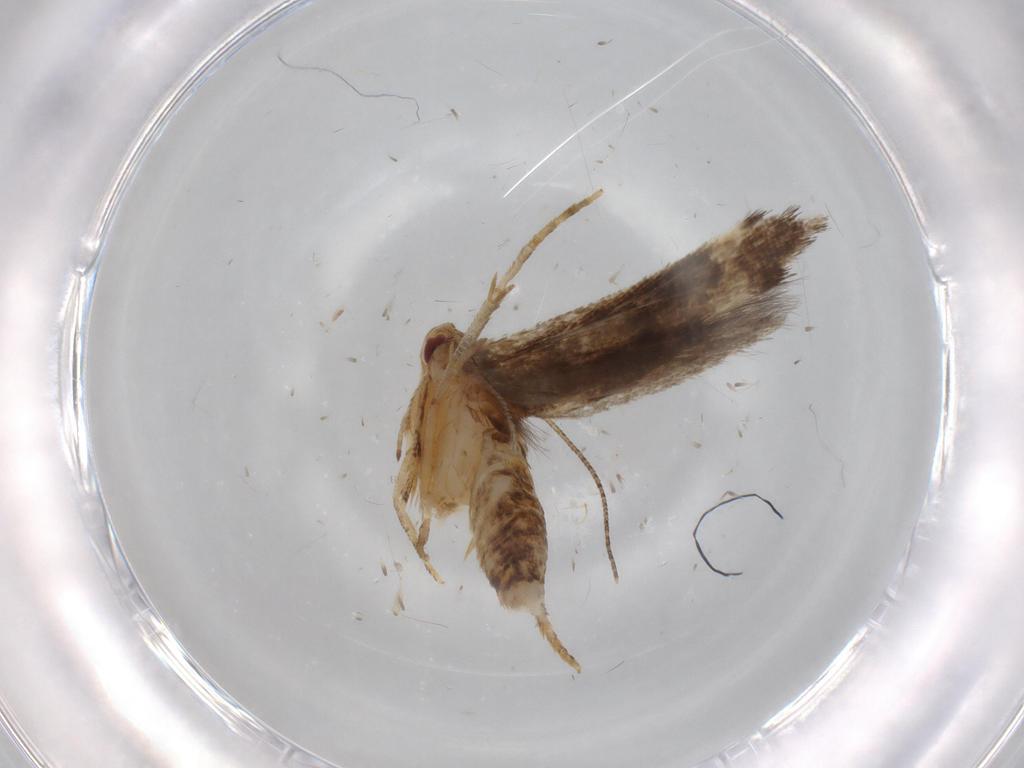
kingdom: Animalia
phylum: Arthropoda
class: Insecta
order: Lepidoptera
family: Momphidae
